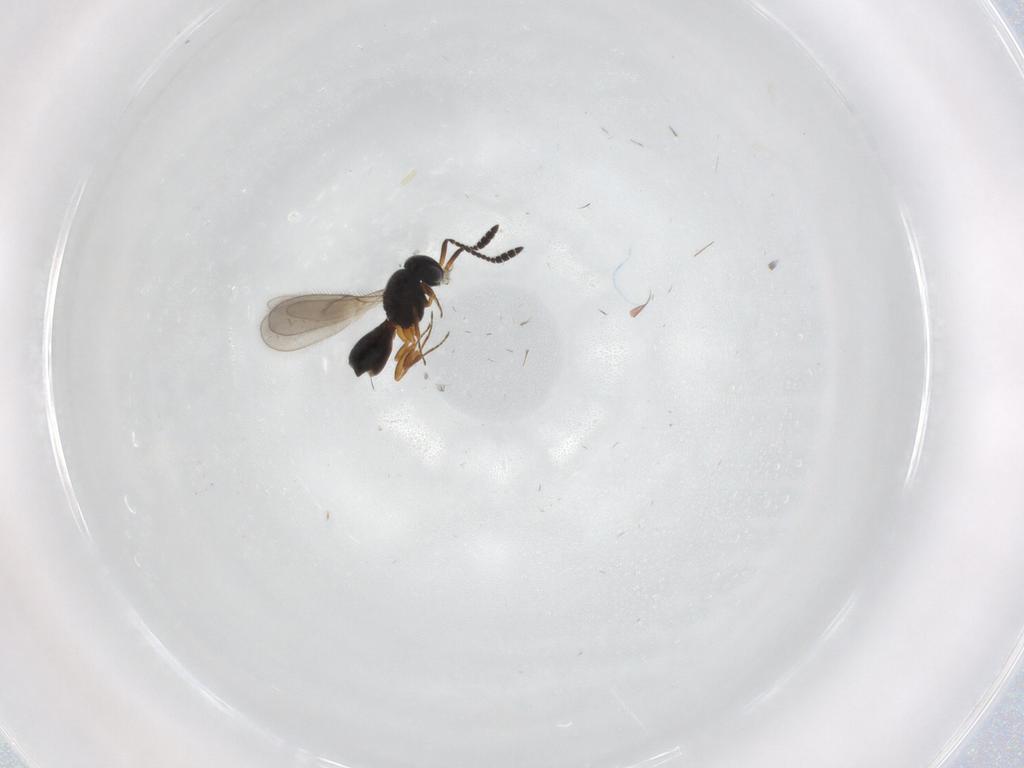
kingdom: Animalia
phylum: Arthropoda
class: Insecta
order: Hymenoptera
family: Scelionidae
